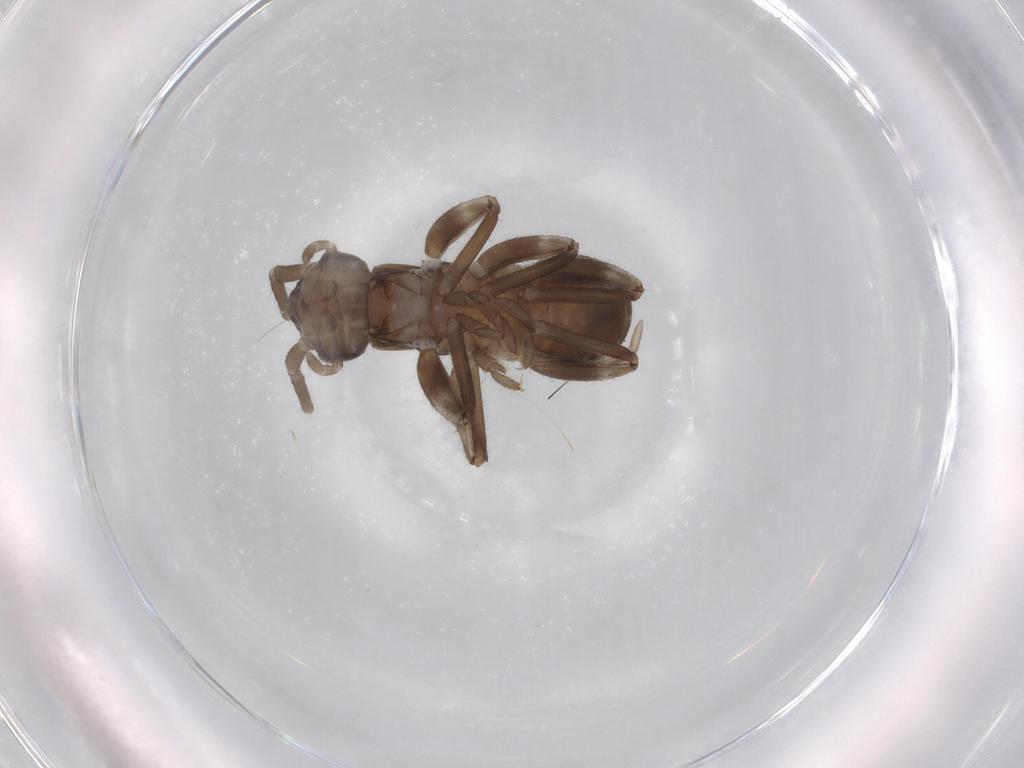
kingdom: Animalia
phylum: Arthropoda
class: Insecta
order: Dermaptera
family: Spongiphoridae
